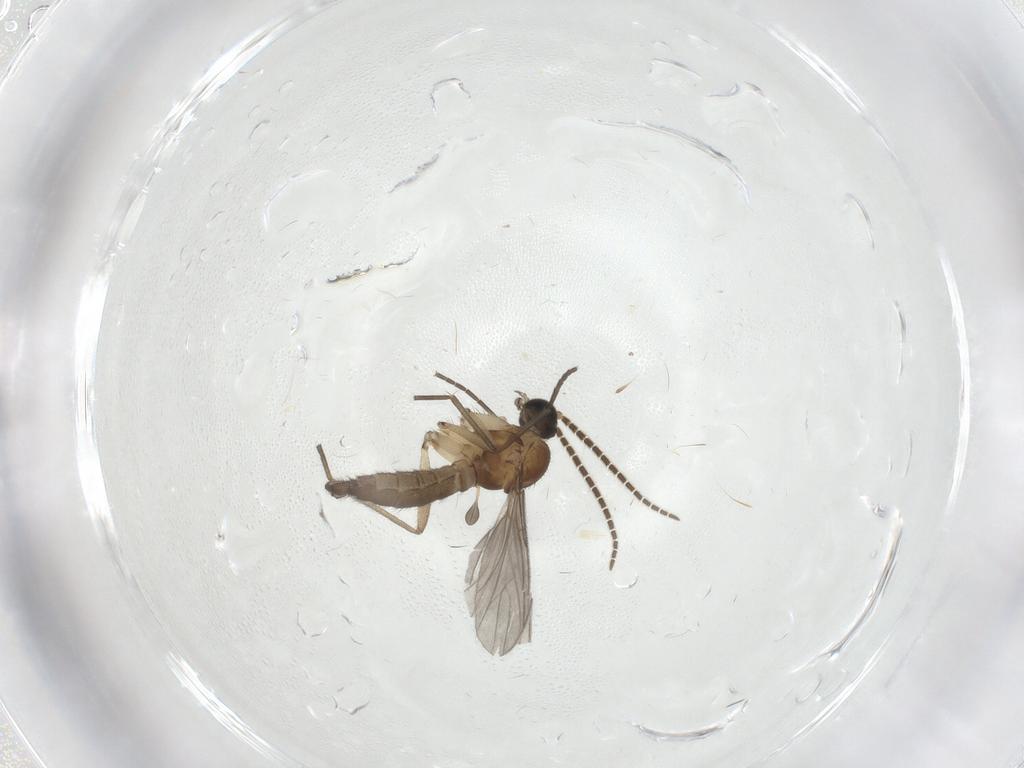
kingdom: Animalia
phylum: Arthropoda
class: Insecta
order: Diptera
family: Sciaridae
